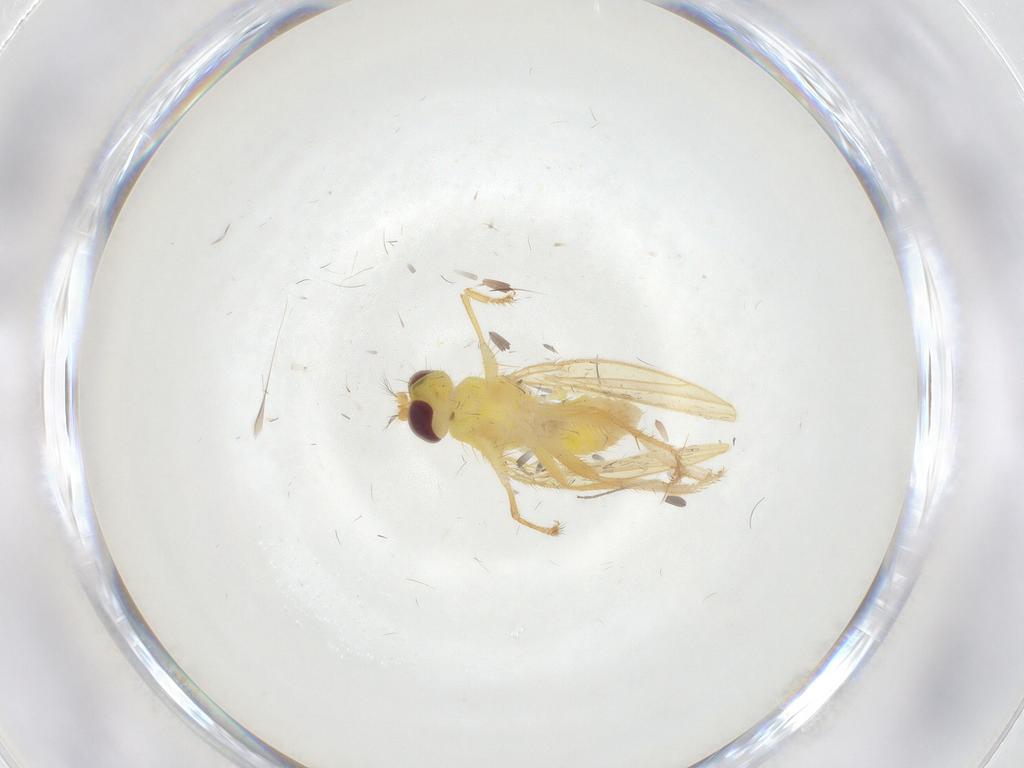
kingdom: Animalia
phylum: Arthropoda
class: Insecta
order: Diptera
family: Periscelididae
